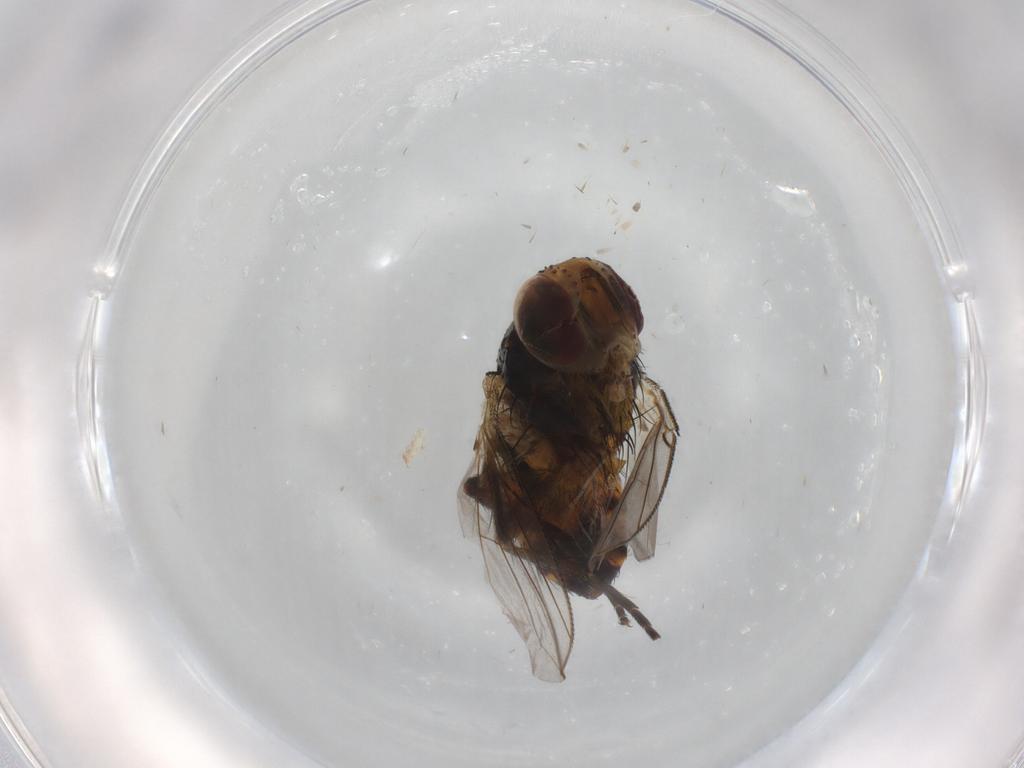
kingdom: Animalia
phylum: Arthropoda
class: Insecta
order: Diptera
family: Muscidae
